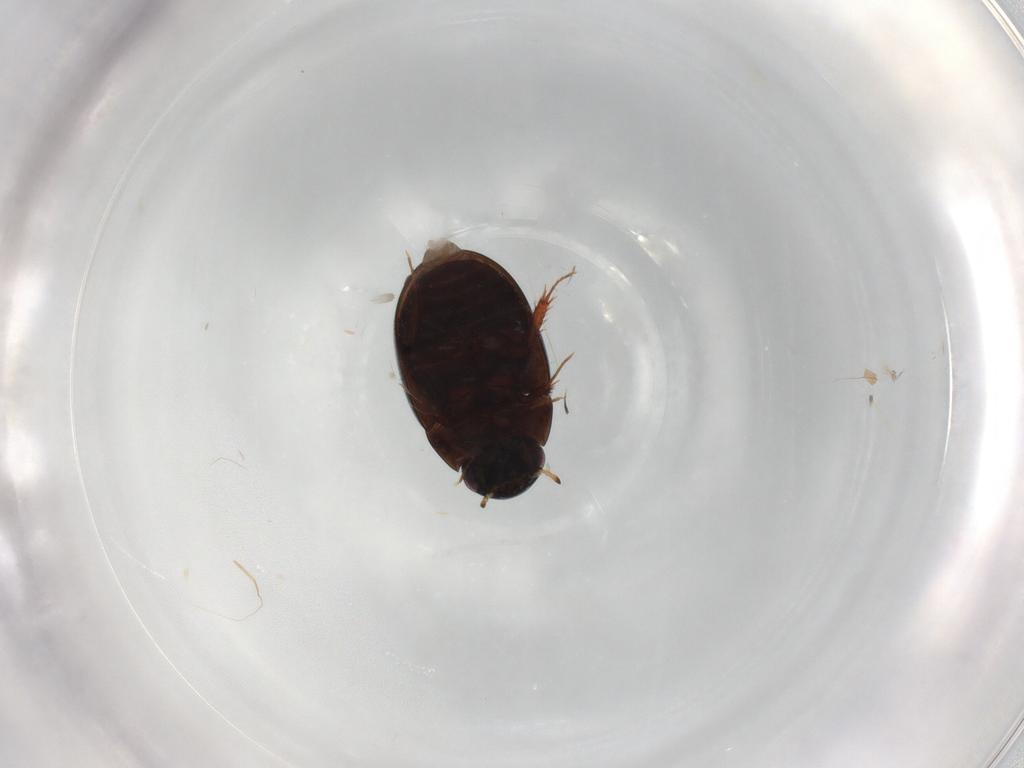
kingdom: Animalia
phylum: Arthropoda
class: Insecta
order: Coleoptera
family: Staphylinidae
